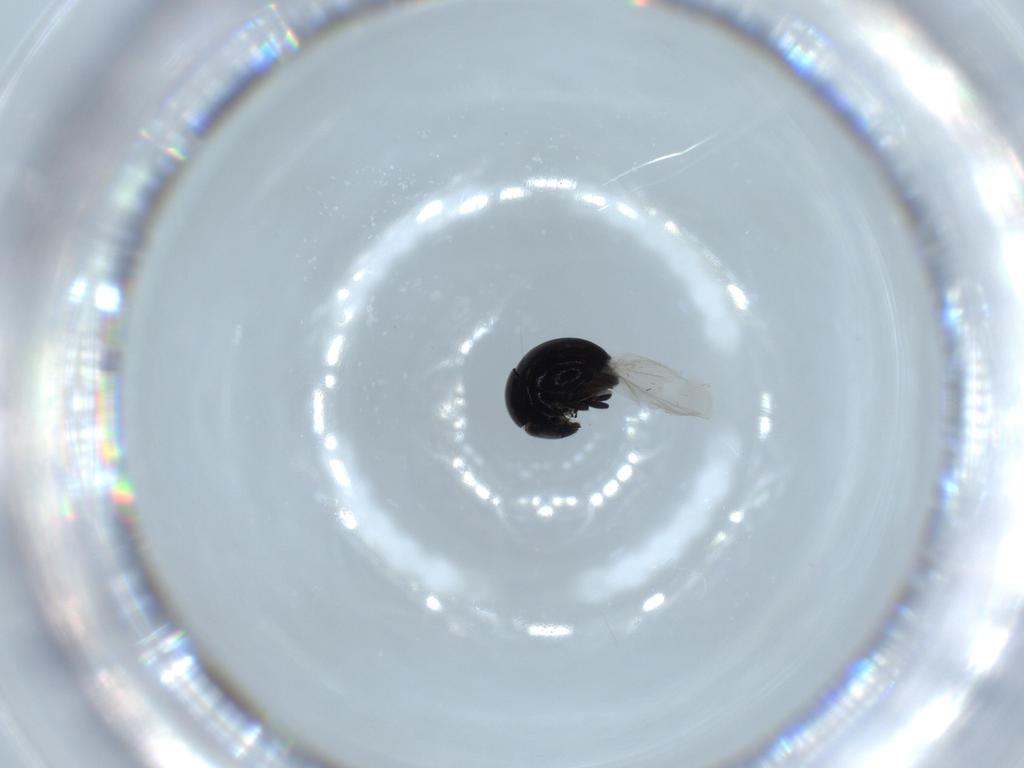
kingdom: Animalia
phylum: Arthropoda
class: Insecta
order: Coleoptera
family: Cybocephalidae
